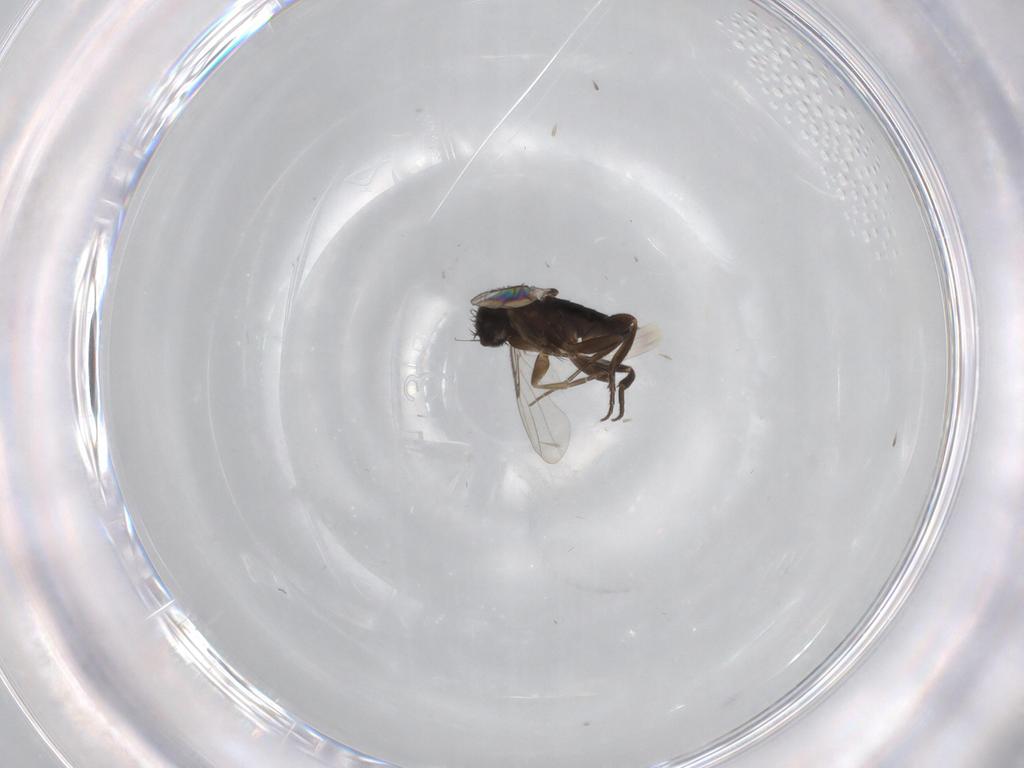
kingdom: Animalia
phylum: Arthropoda
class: Insecta
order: Diptera
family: Phoridae
